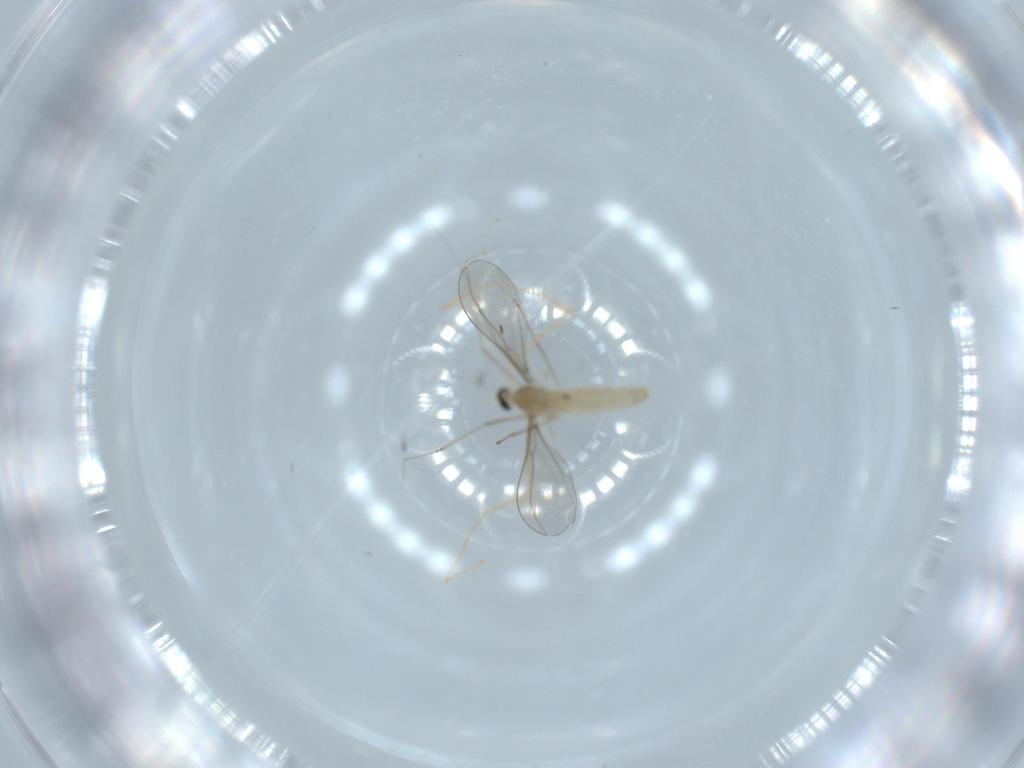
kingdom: Animalia
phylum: Arthropoda
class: Insecta
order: Diptera
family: Cecidomyiidae
